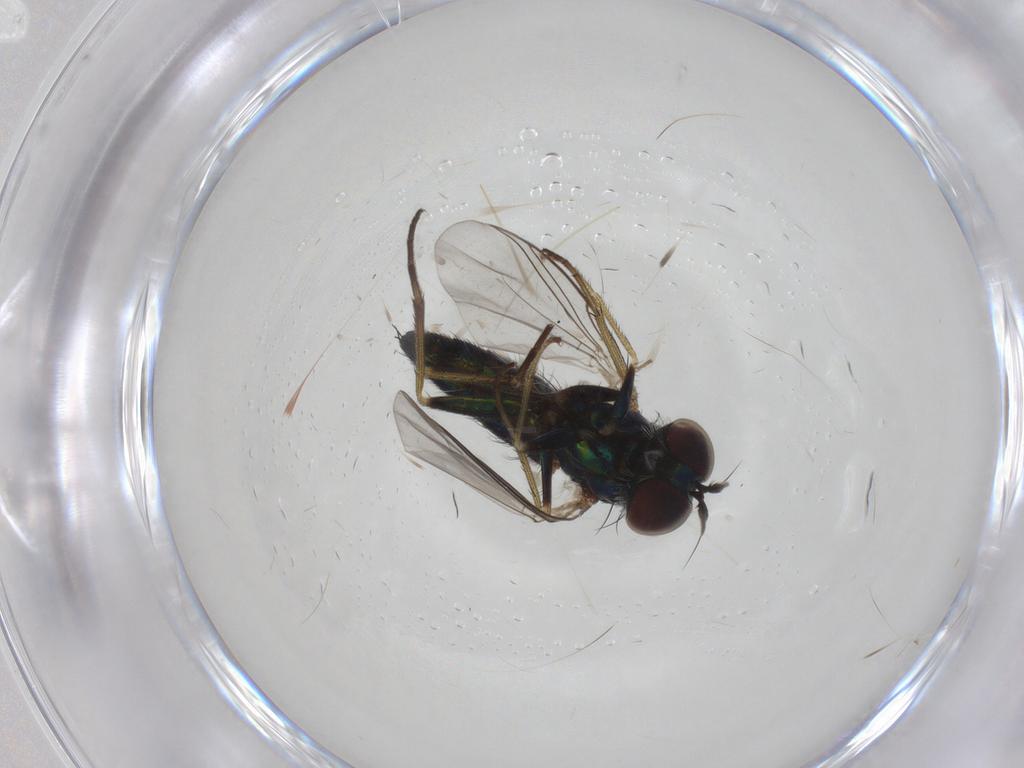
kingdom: Animalia
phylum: Arthropoda
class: Insecta
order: Diptera
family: Dolichopodidae
